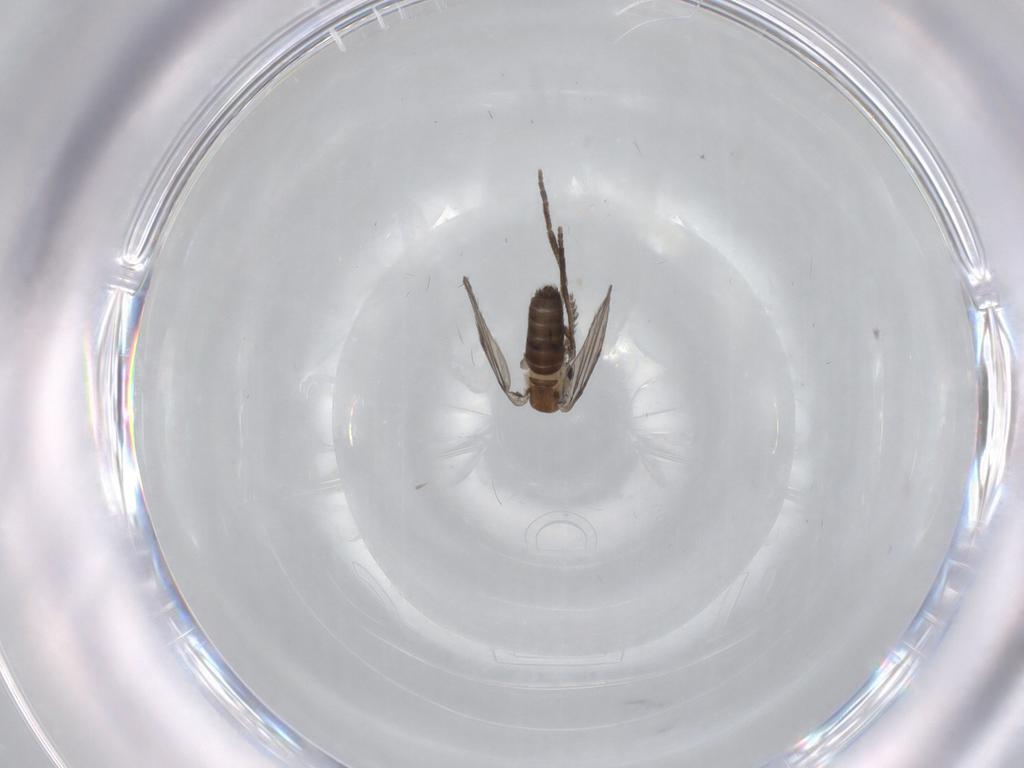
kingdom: Animalia
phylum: Arthropoda
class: Insecta
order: Diptera
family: Psychodidae
